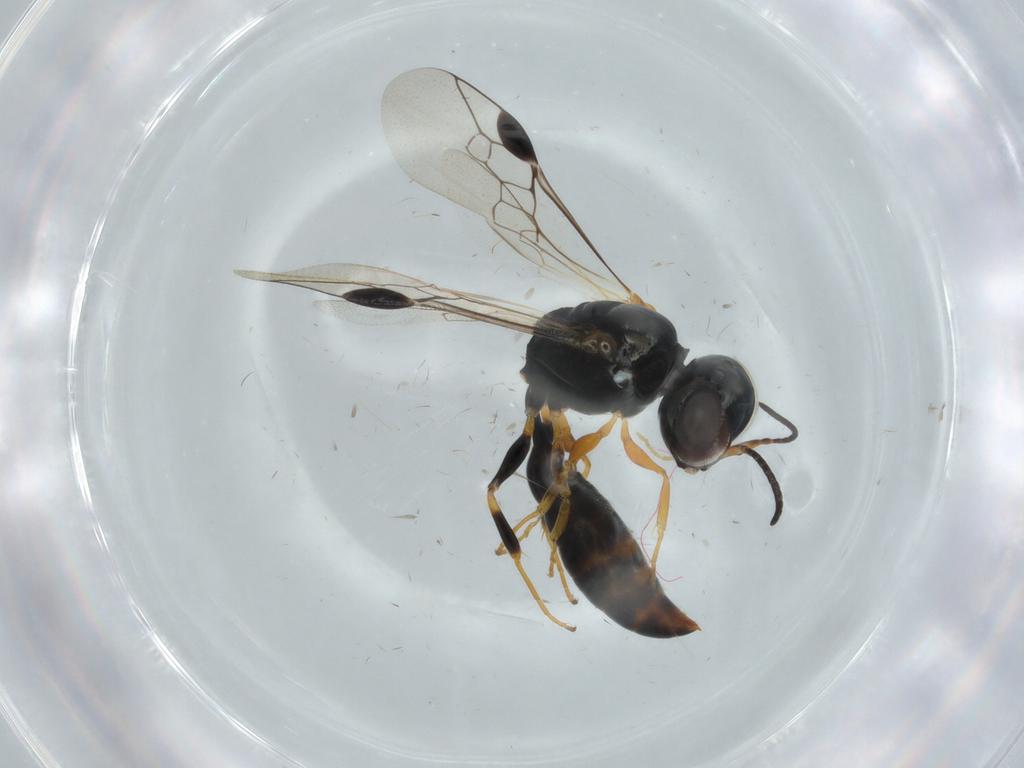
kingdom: Animalia
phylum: Arthropoda
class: Insecta
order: Hymenoptera
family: Pemphredonidae
